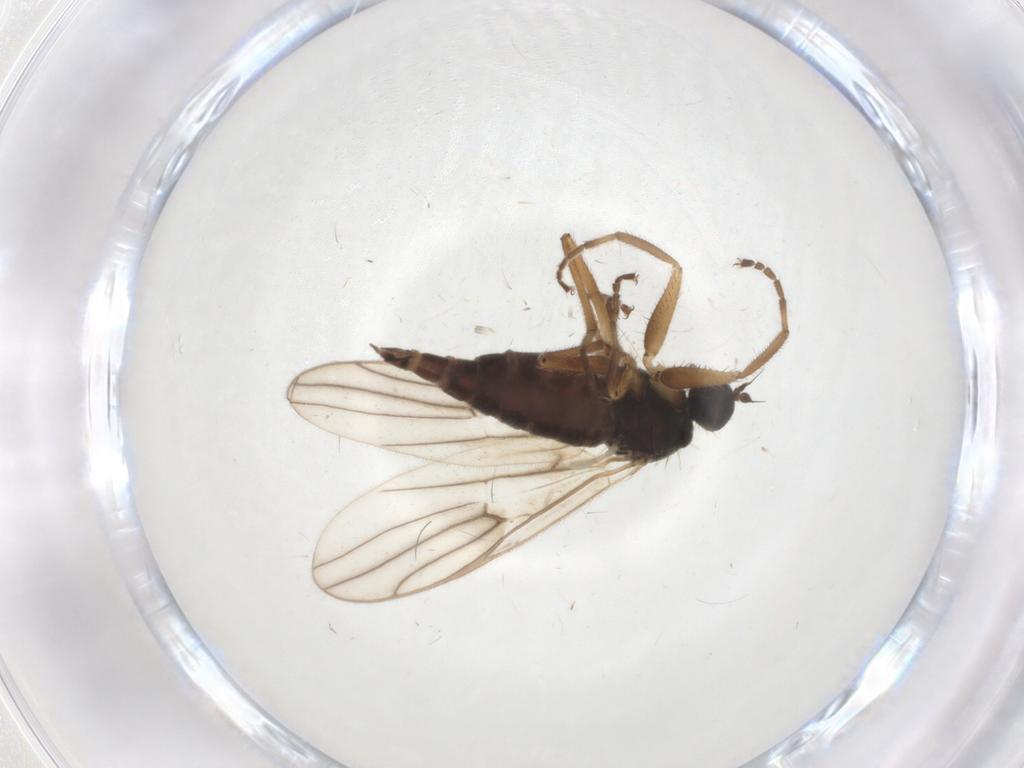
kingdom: Animalia
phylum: Arthropoda
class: Insecta
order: Diptera
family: Hybotidae
